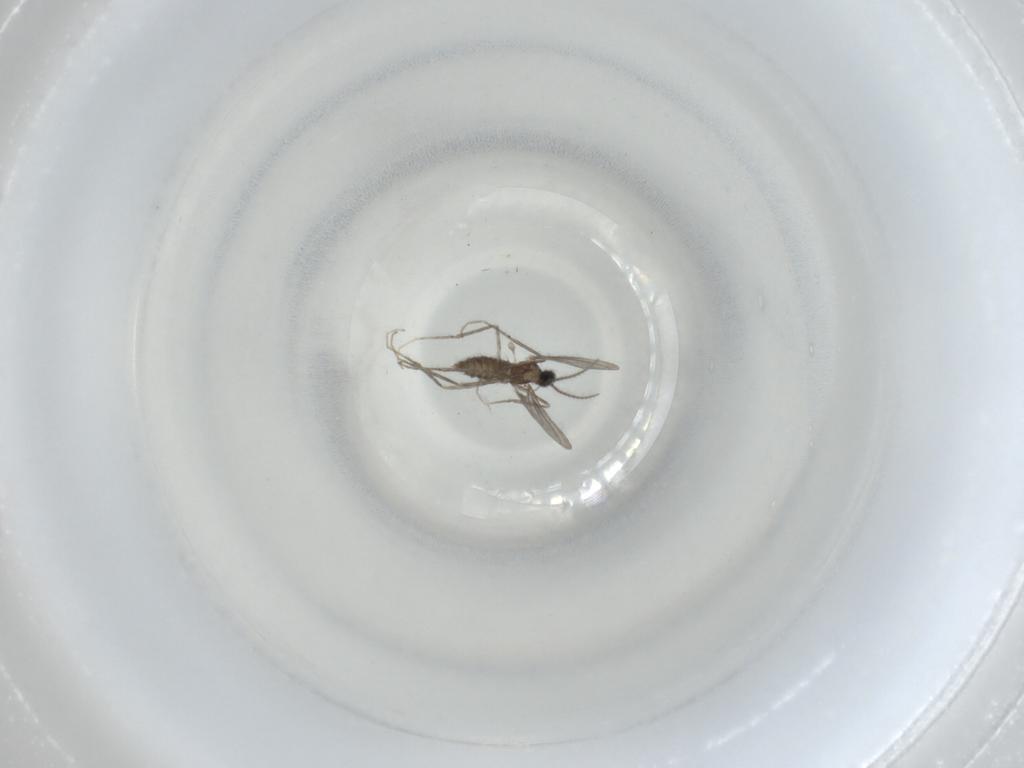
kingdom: Animalia
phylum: Arthropoda
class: Insecta
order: Diptera
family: Cecidomyiidae
